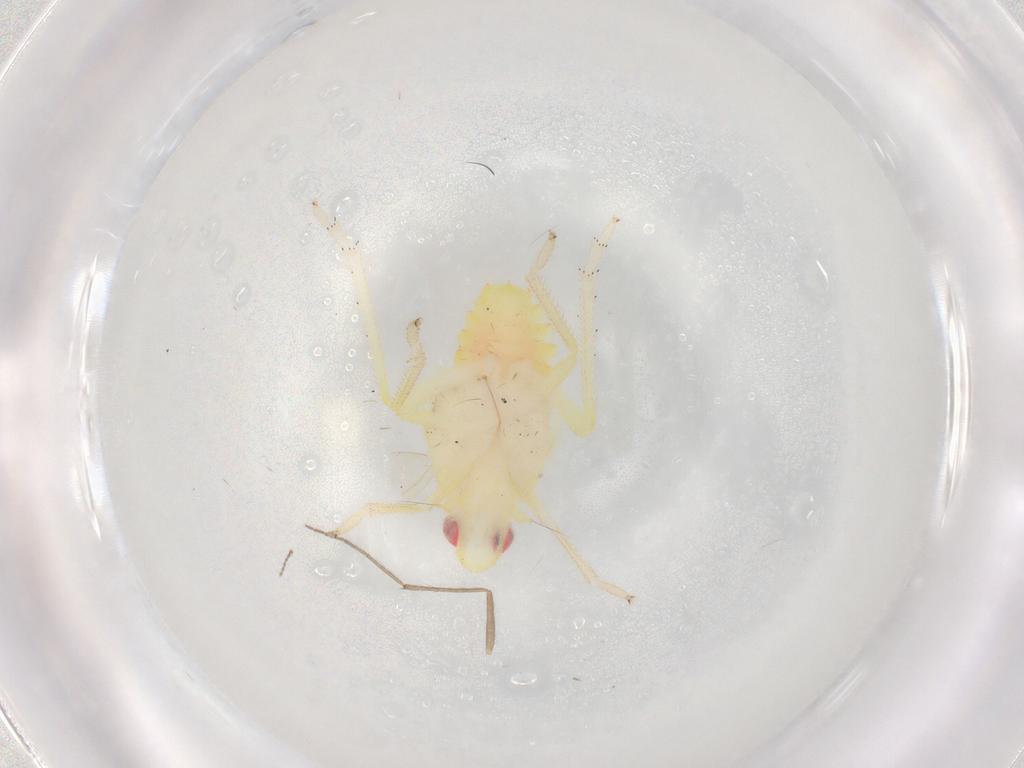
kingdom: Animalia
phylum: Arthropoda
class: Insecta
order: Hemiptera
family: Tropiduchidae
